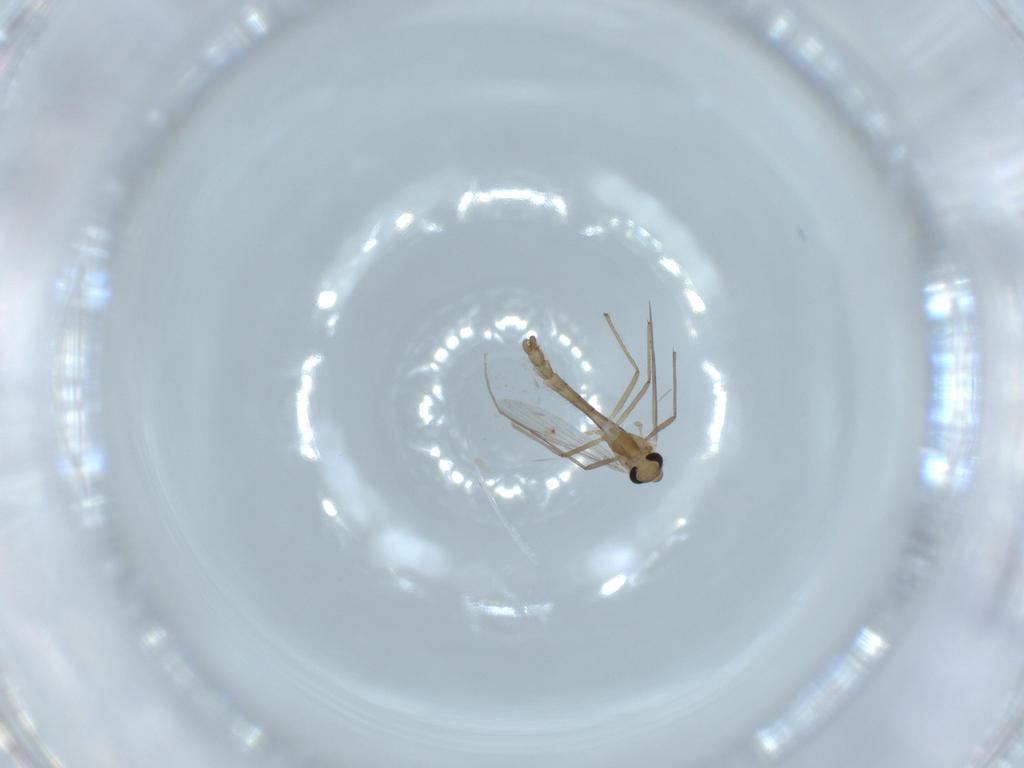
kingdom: Animalia
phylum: Arthropoda
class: Insecta
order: Diptera
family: Chironomidae
